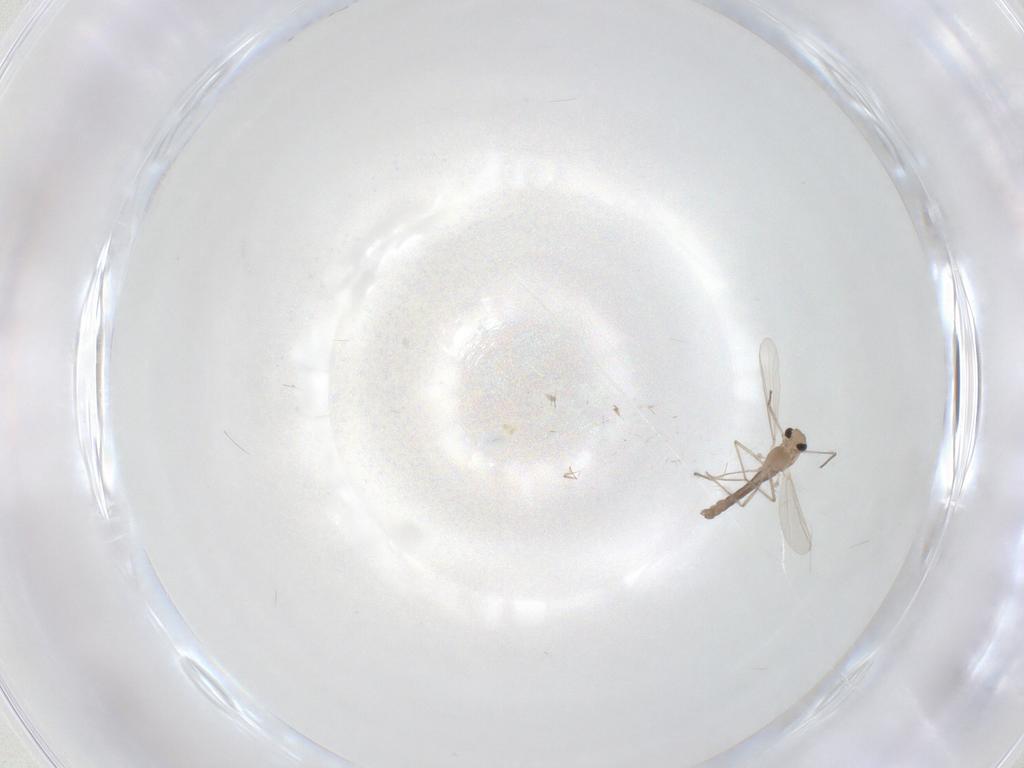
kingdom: Animalia
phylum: Arthropoda
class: Insecta
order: Diptera
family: Chironomidae
